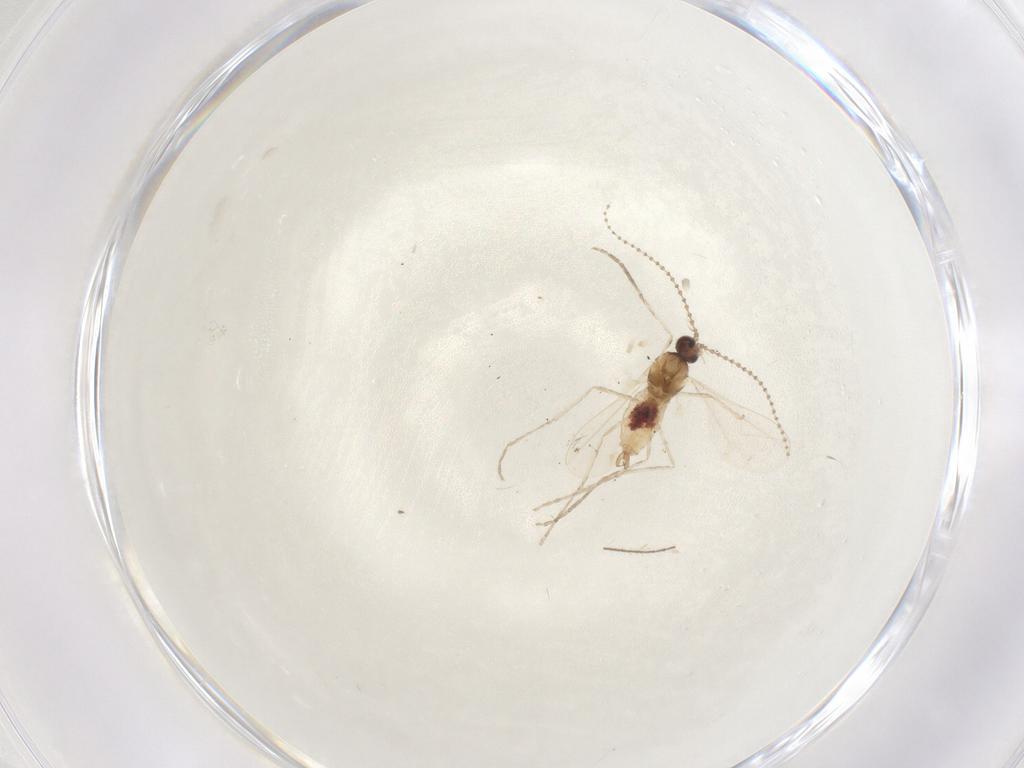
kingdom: Animalia
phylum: Arthropoda
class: Insecta
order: Diptera
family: Cecidomyiidae
